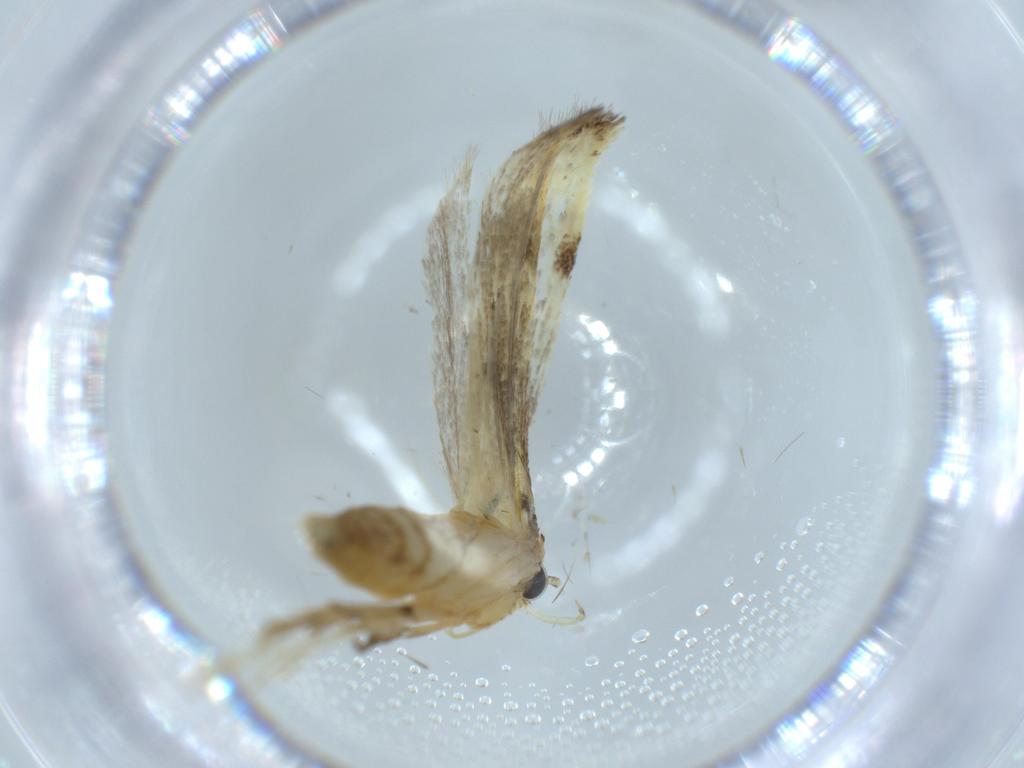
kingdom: Animalia
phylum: Arthropoda
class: Insecta
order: Lepidoptera
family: Autostichidae
